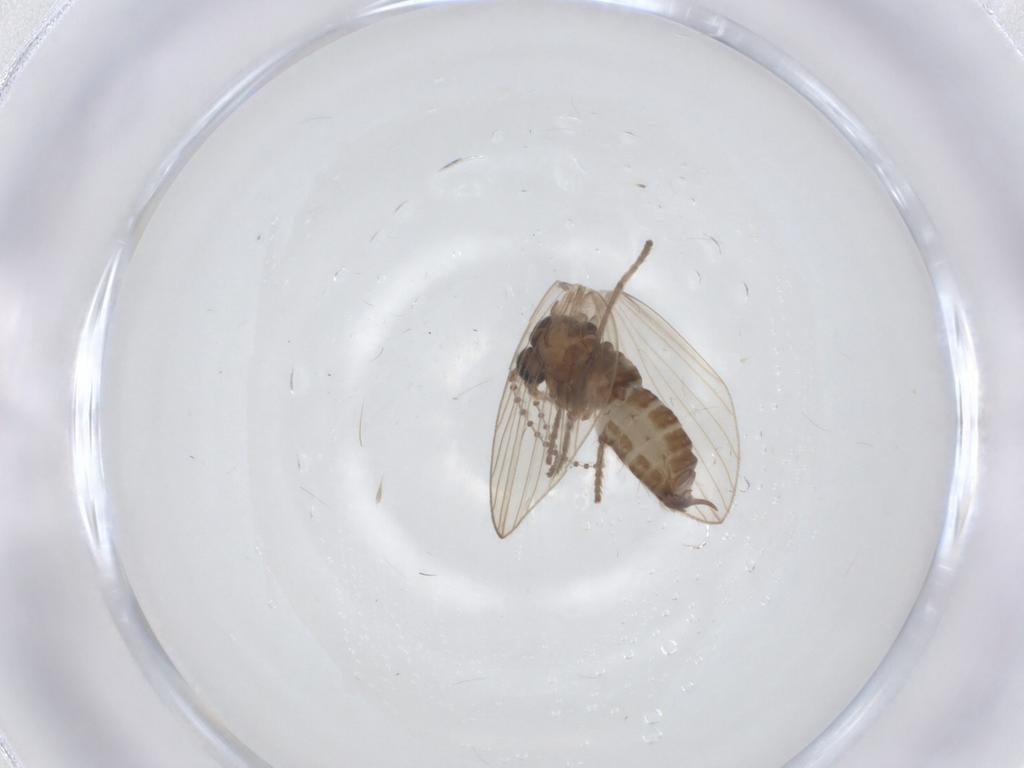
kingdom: Animalia
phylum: Arthropoda
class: Insecta
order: Diptera
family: Psychodidae
